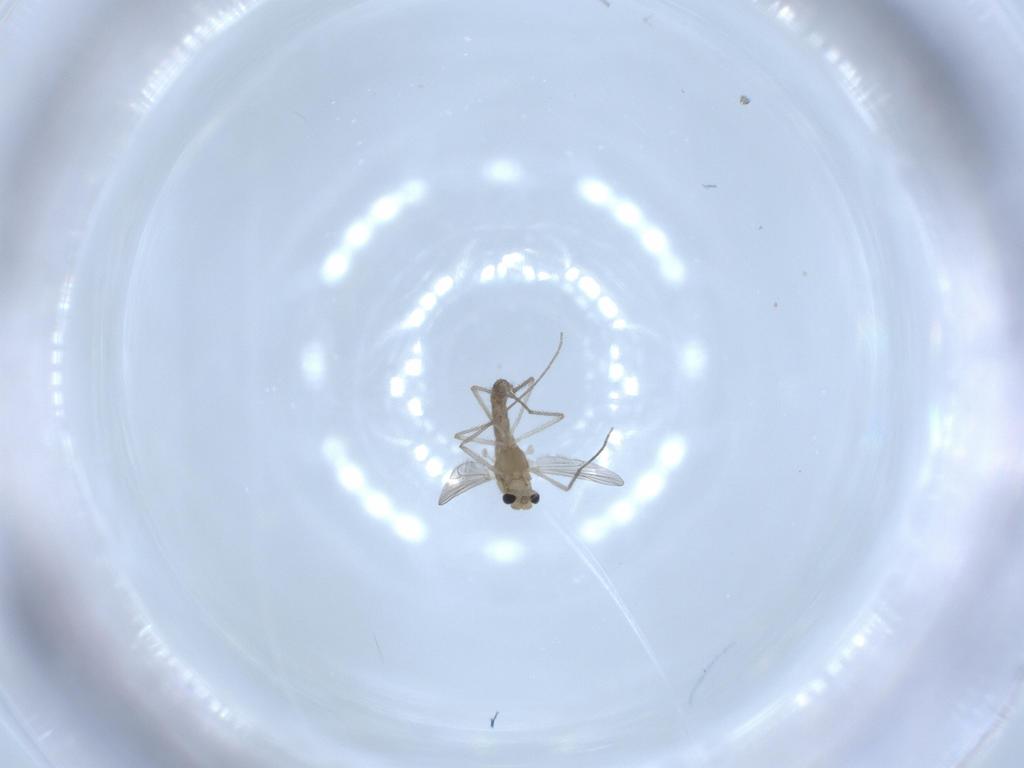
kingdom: Animalia
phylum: Arthropoda
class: Insecta
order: Diptera
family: Chironomidae
